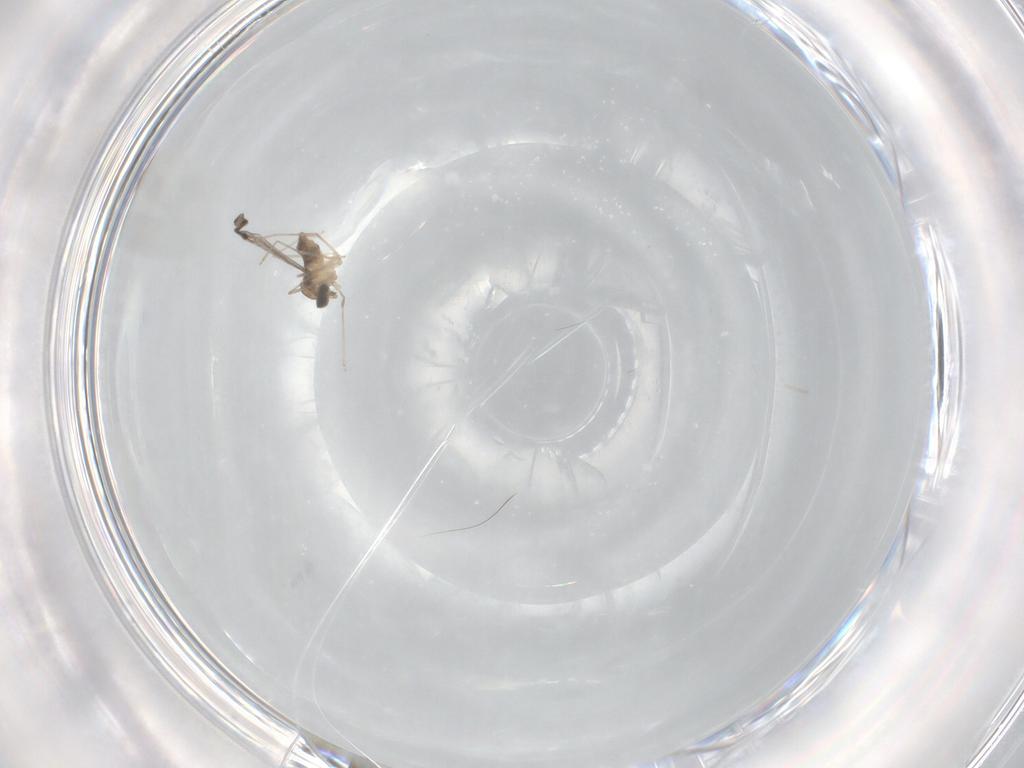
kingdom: Animalia
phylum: Arthropoda
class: Insecta
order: Diptera
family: Cecidomyiidae
